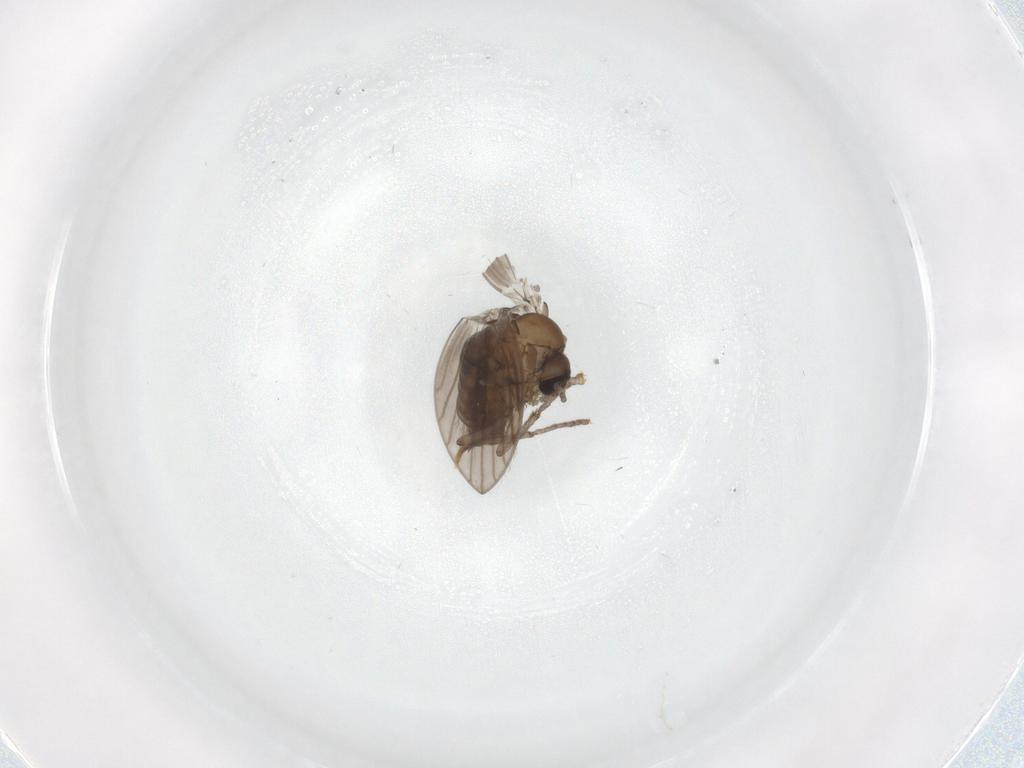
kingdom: Animalia
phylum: Arthropoda
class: Insecta
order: Diptera
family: Psychodidae
